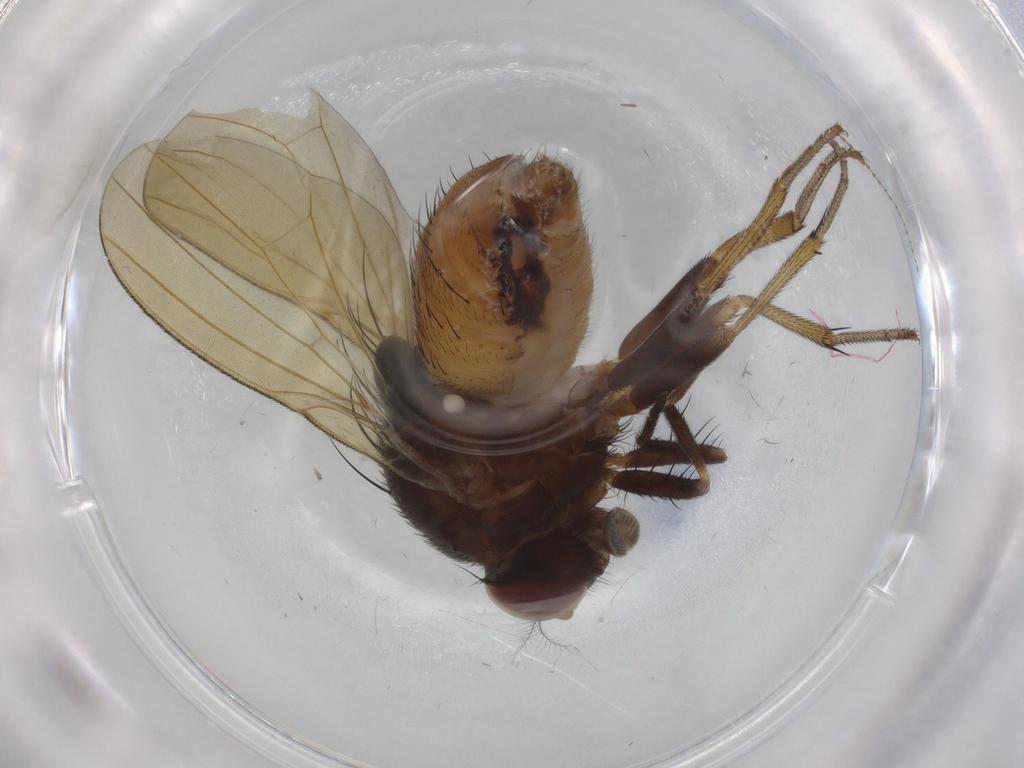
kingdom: Animalia
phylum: Arthropoda
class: Insecta
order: Diptera
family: Sciaridae
